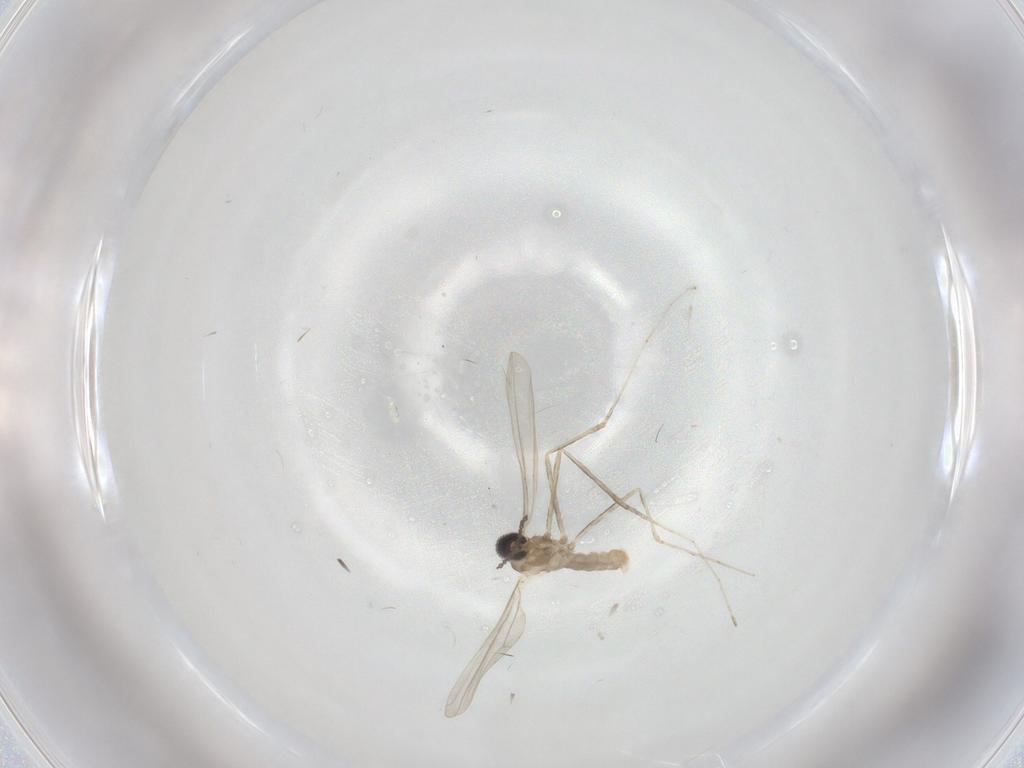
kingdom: Animalia
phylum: Arthropoda
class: Insecta
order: Diptera
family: Cecidomyiidae
